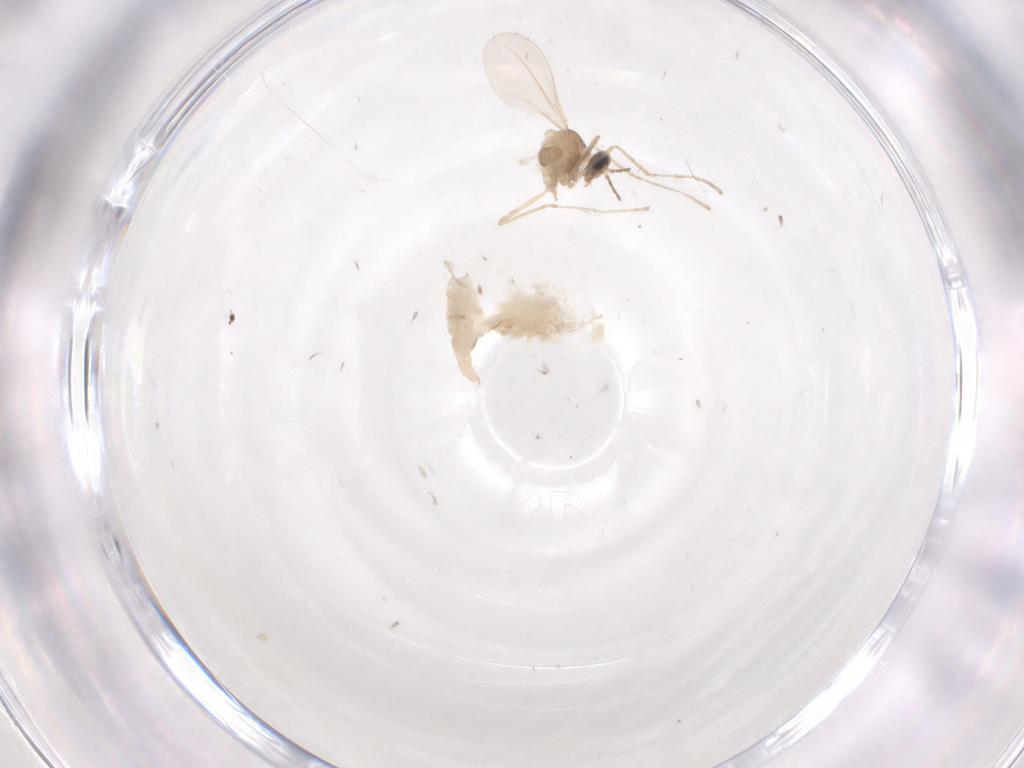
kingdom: Animalia
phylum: Arthropoda
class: Insecta
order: Diptera
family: Cecidomyiidae
